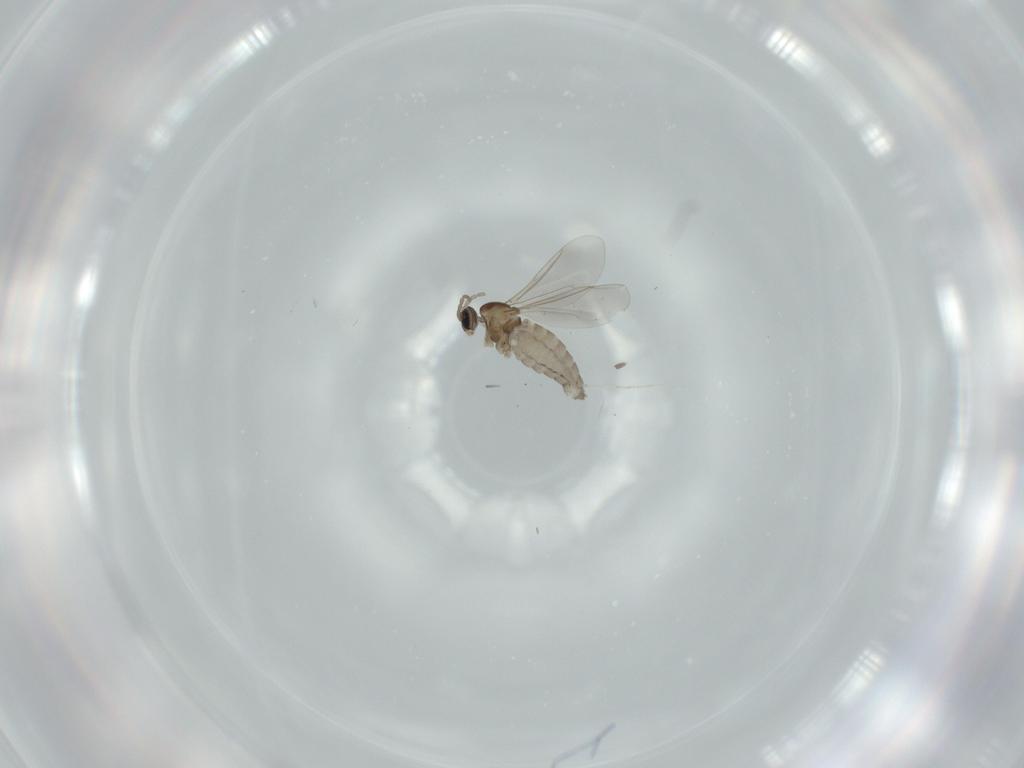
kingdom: Animalia
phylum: Arthropoda
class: Insecta
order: Diptera
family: Cecidomyiidae
